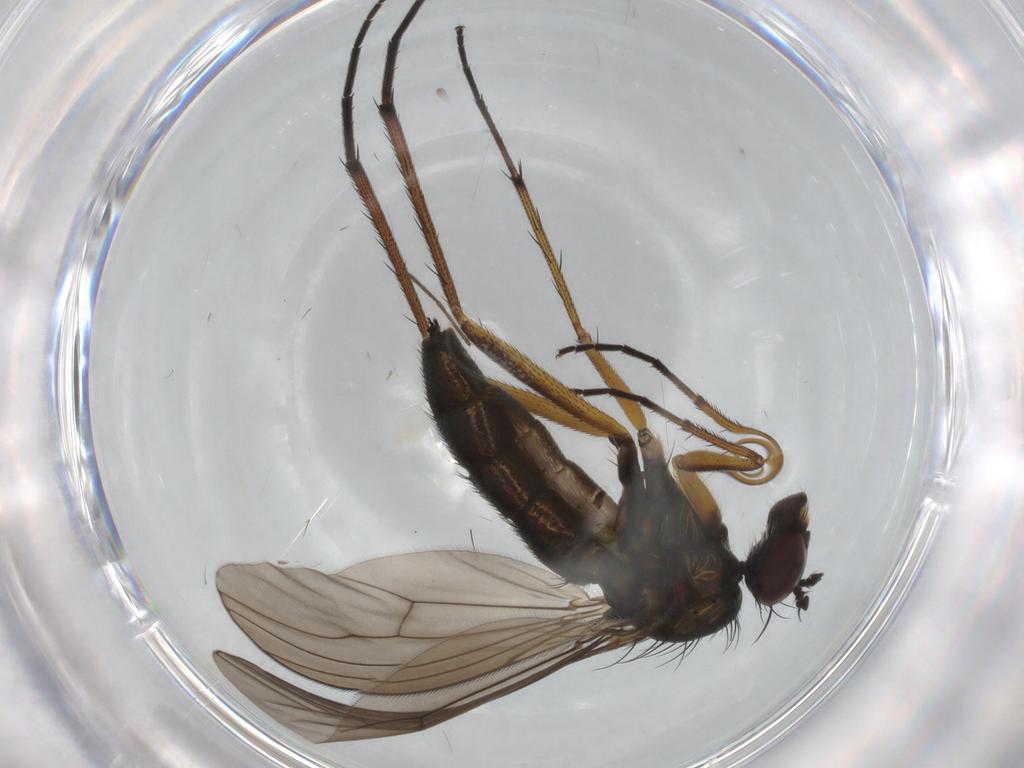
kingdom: Animalia
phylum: Arthropoda
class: Insecta
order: Diptera
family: Dolichopodidae
